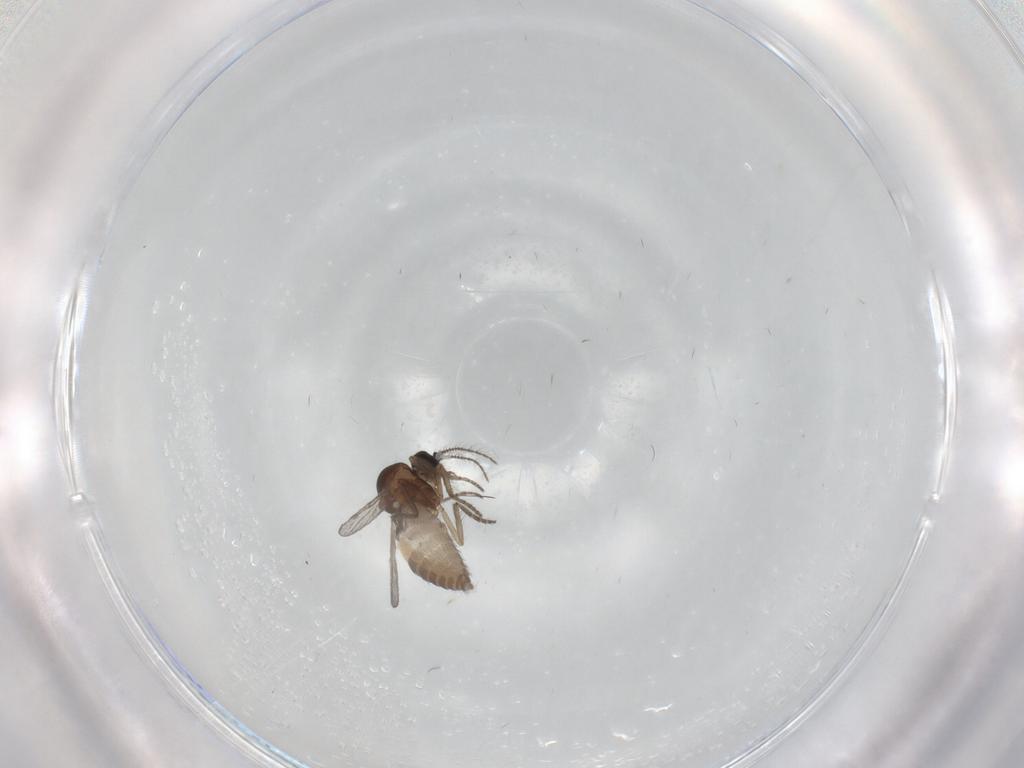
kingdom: Animalia
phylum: Arthropoda
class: Insecta
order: Diptera
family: Ceratopogonidae
